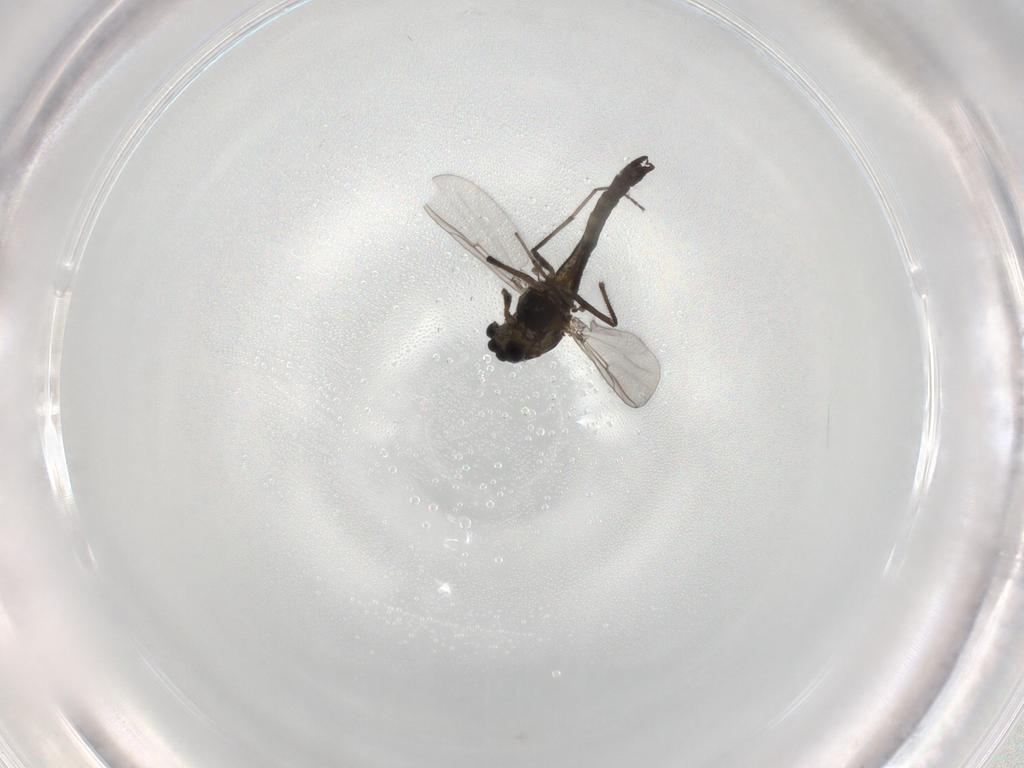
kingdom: Animalia
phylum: Arthropoda
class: Insecta
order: Diptera
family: Chironomidae
